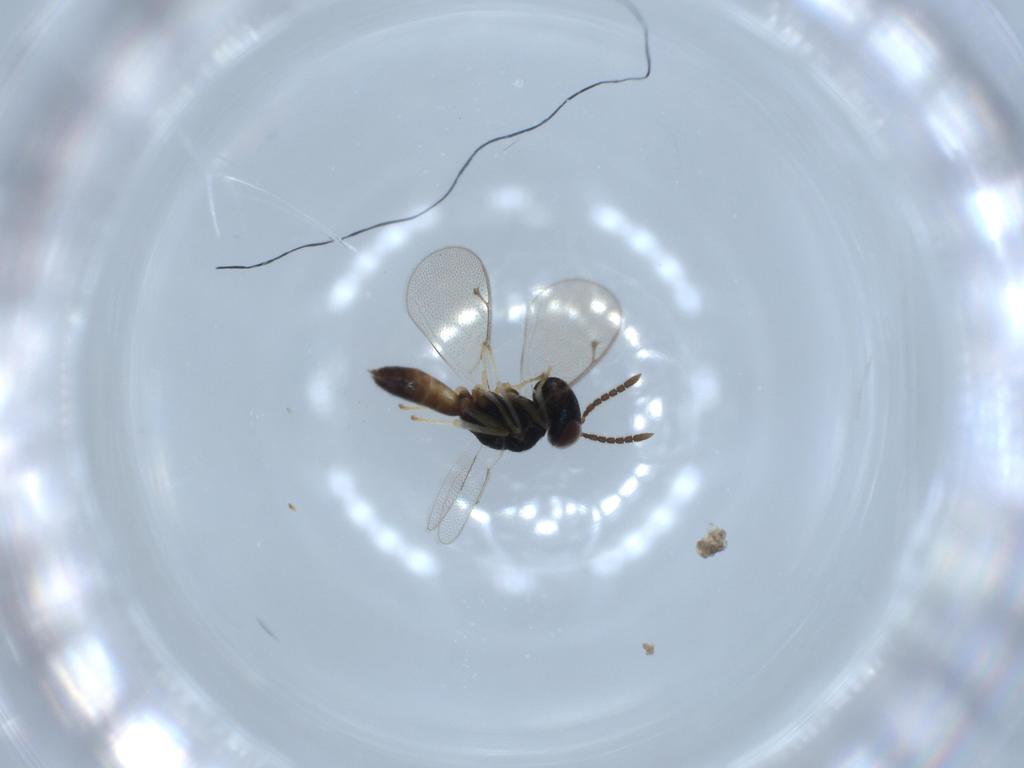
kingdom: Animalia
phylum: Arthropoda
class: Insecta
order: Hymenoptera
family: Pteromalidae
